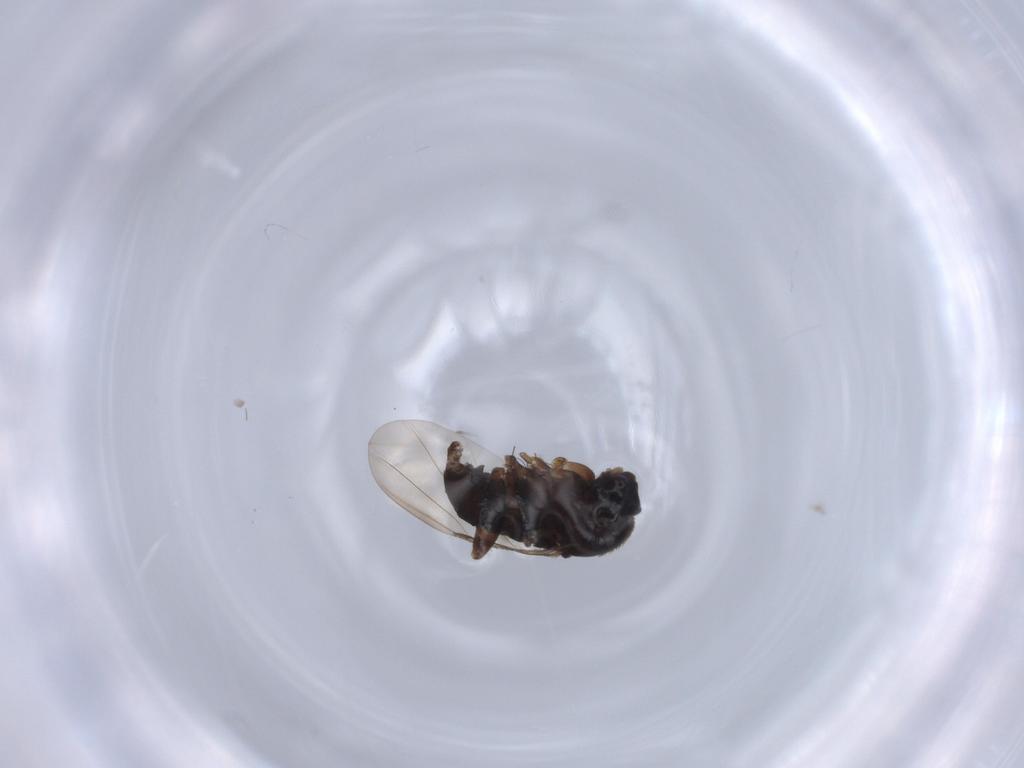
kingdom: Animalia
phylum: Arthropoda
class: Insecta
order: Diptera
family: Phoridae
